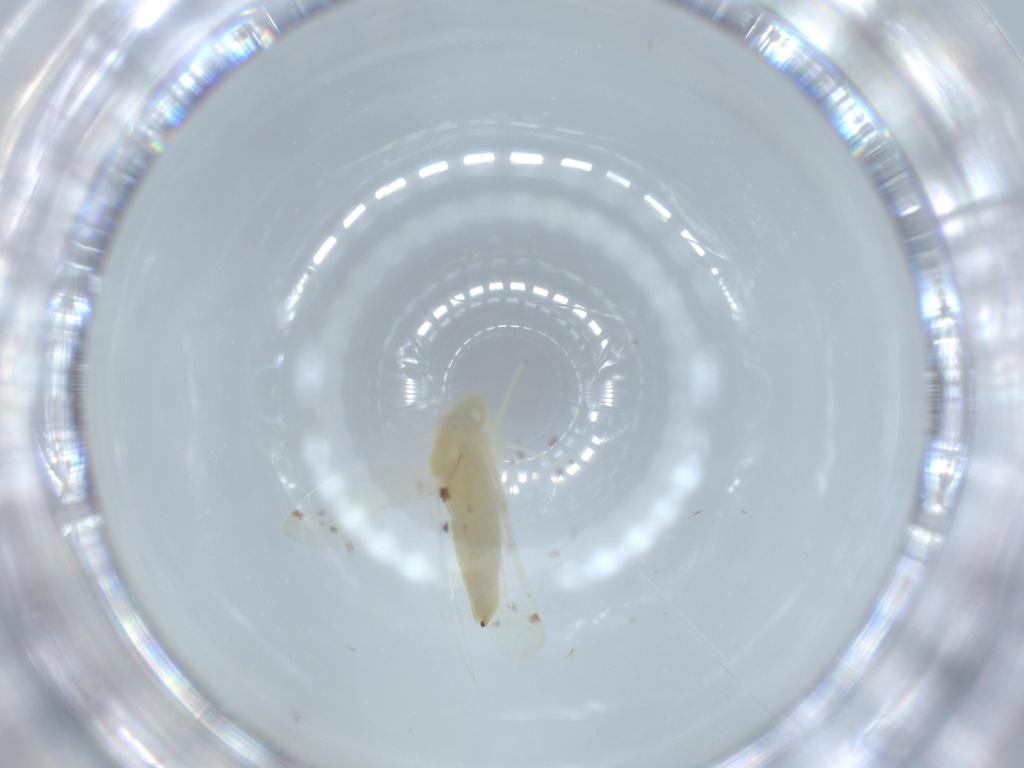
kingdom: Animalia
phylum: Arthropoda
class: Insecta
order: Hemiptera
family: Cicadellidae
